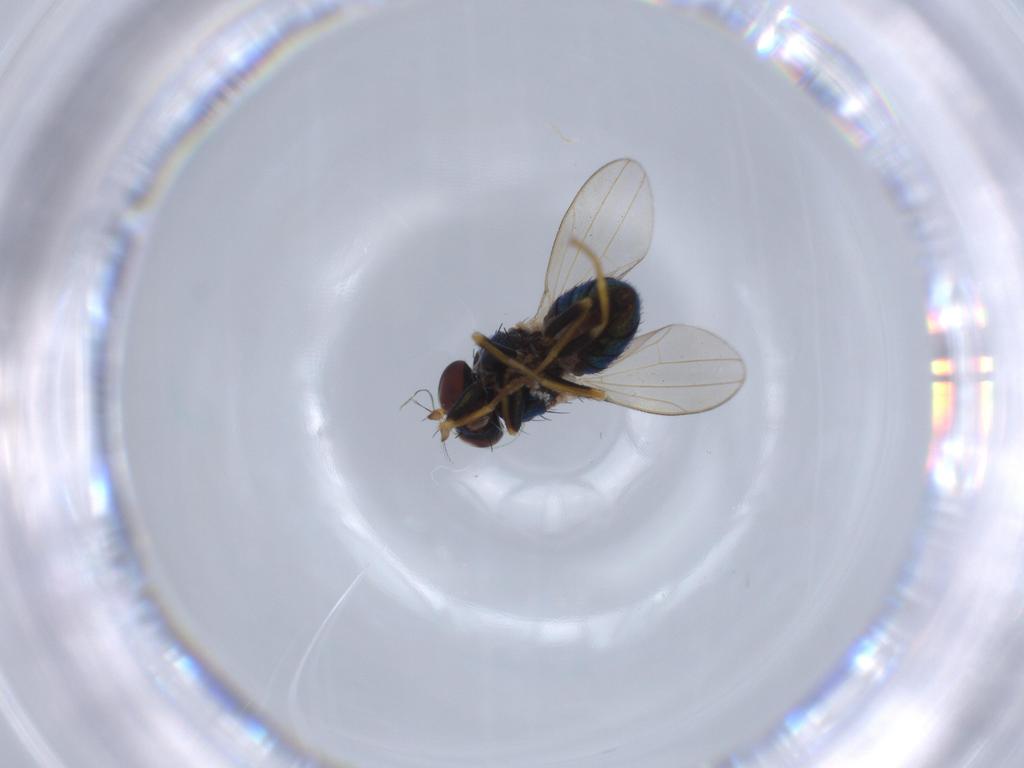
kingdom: Animalia
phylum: Arthropoda
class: Insecta
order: Diptera
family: Ephydridae
